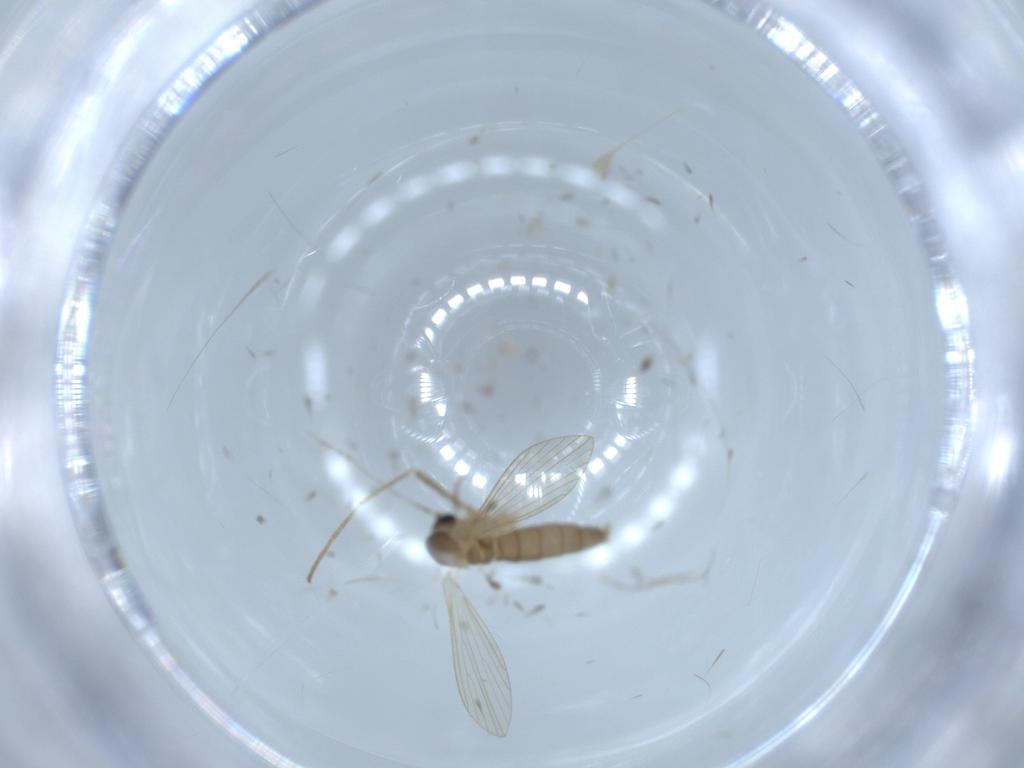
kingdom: Animalia
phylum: Arthropoda
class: Insecta
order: Diptera
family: Psychodidae
